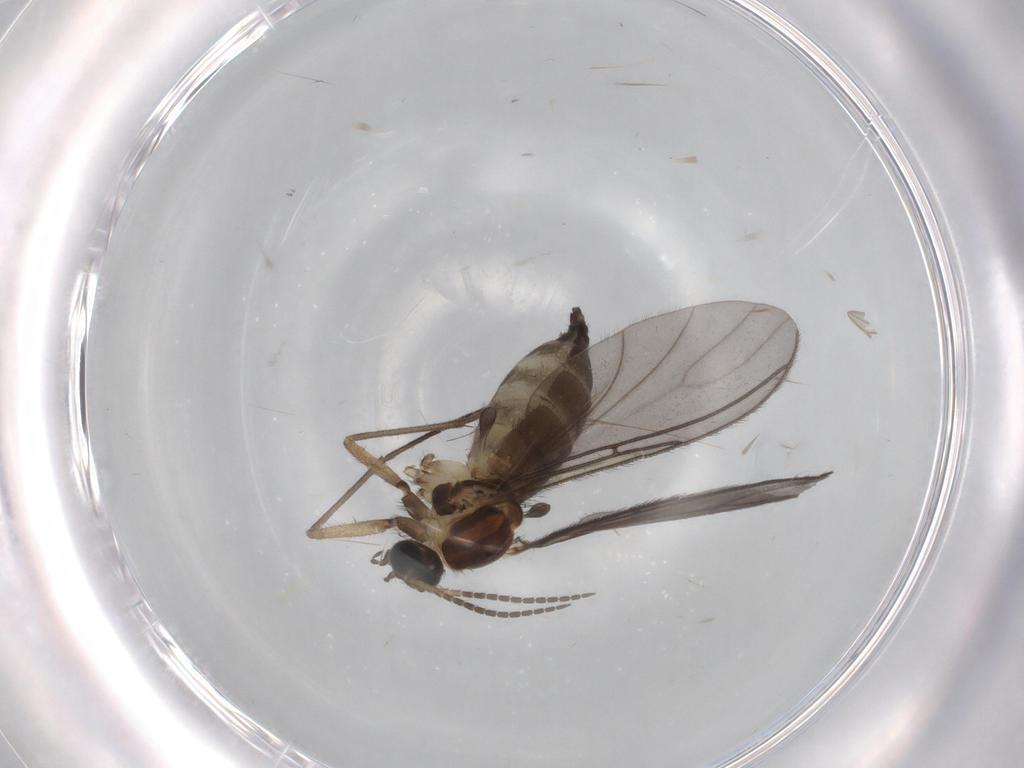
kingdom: Animalia
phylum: Arthropoda
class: Insecta
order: Diptera
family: Sciaridae
